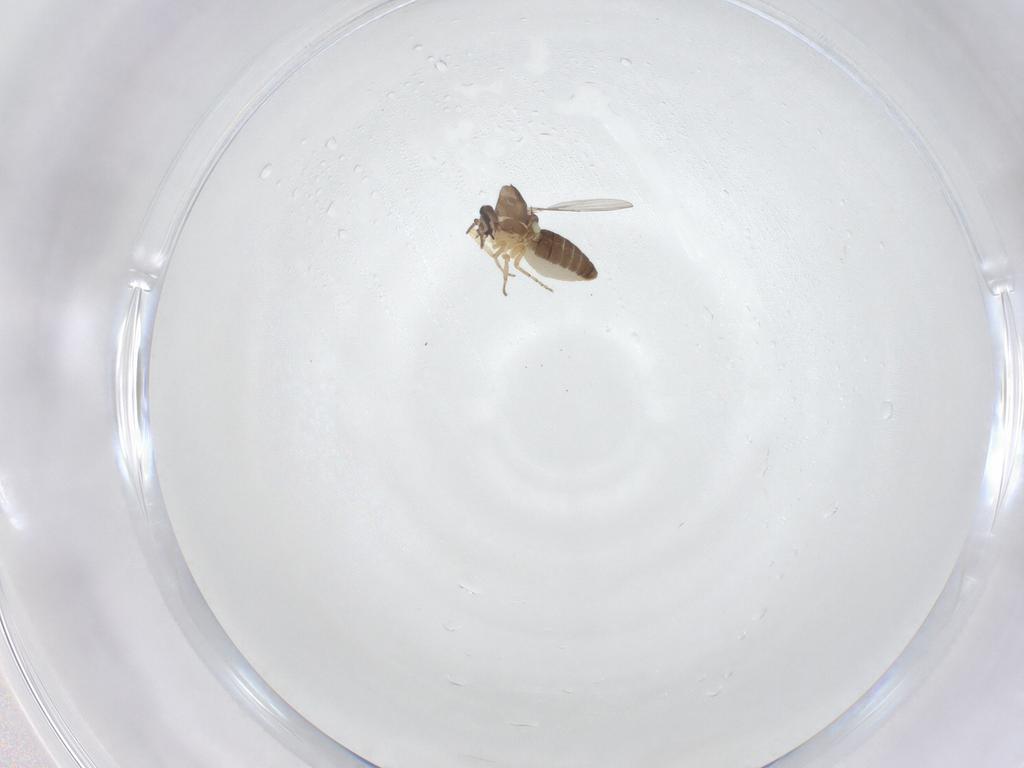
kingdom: Animalia
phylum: Arthropoda
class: Insecta
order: Diptera
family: Ceratopogonidae
